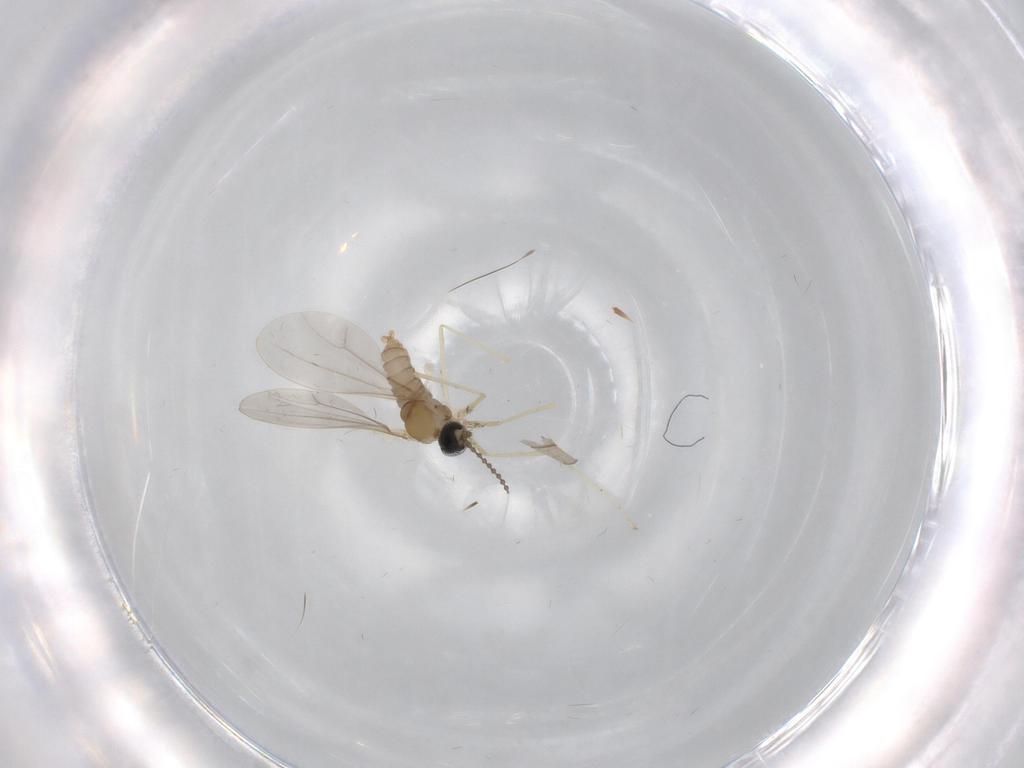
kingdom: Animalia
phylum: Arthropoda
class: Insecta
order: Diptera
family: Cecidomyiidae
